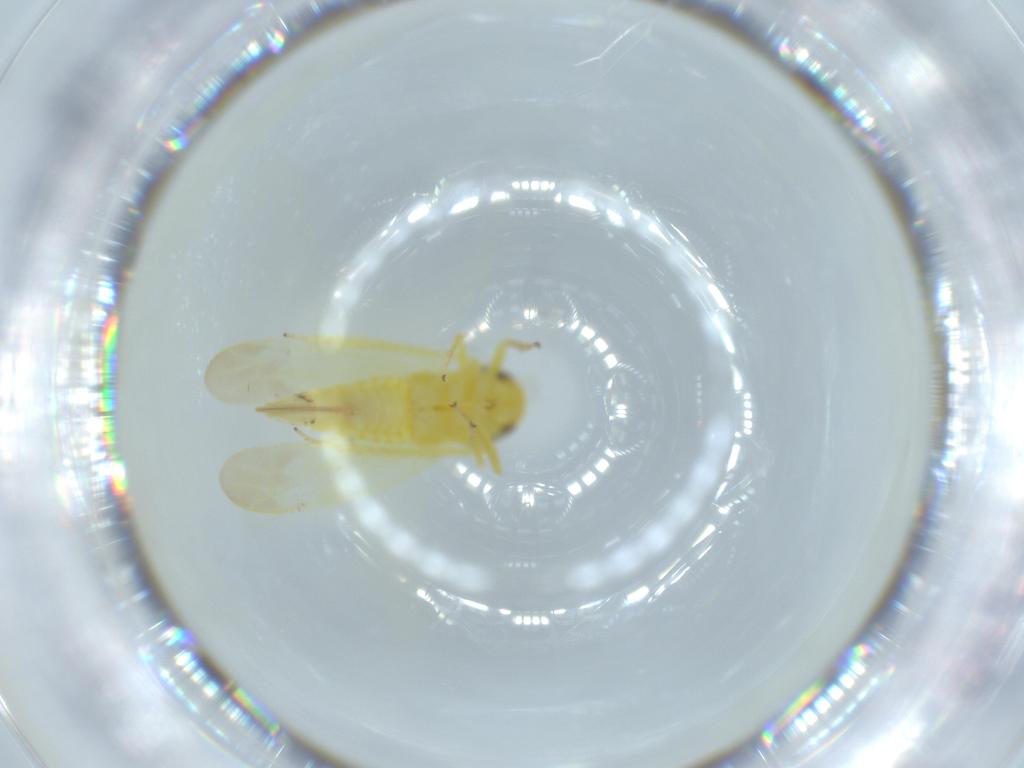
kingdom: Animalia
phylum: Arthropoda
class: Insecta
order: Hemiptera
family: Cicadellidae
